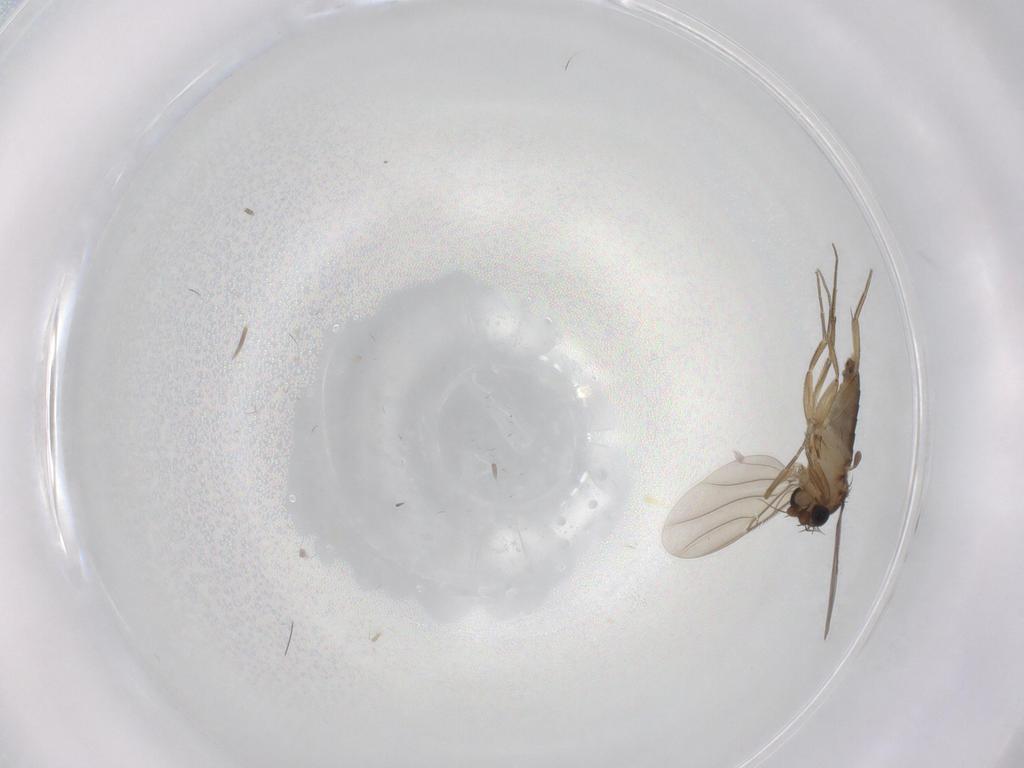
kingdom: Animalia
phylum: Arthropoda
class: Insecta
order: Diptera
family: Phoridae
